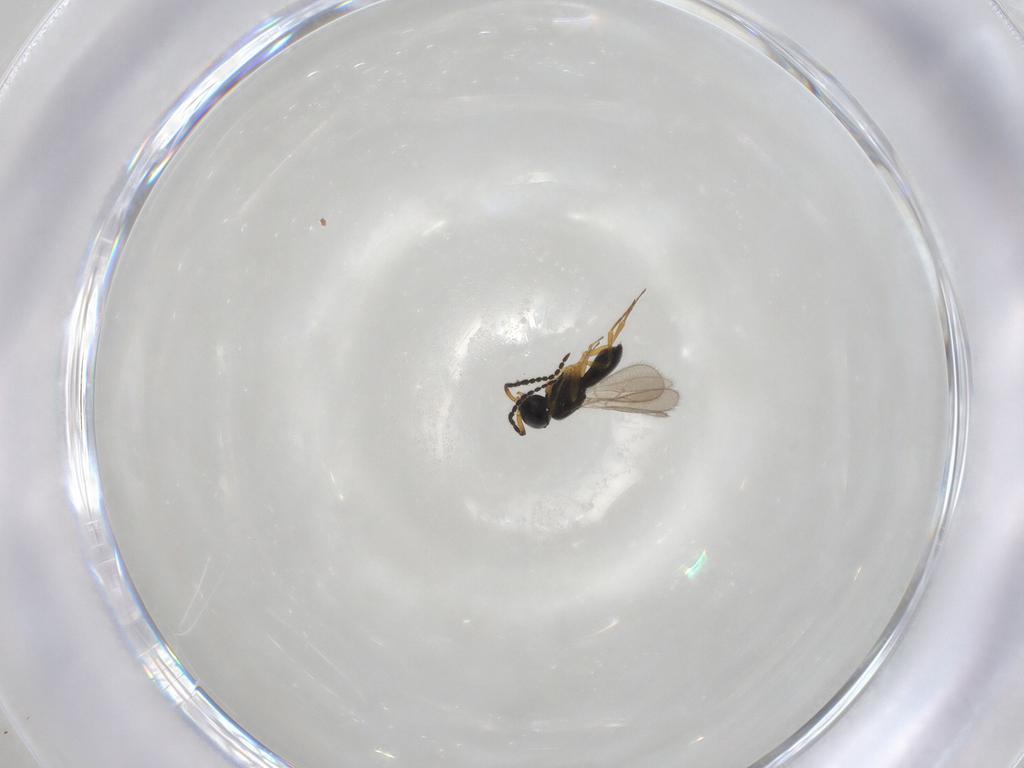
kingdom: Animalia
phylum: Arthropoda
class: Insecta
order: Hymenoptera
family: Scelionidae
